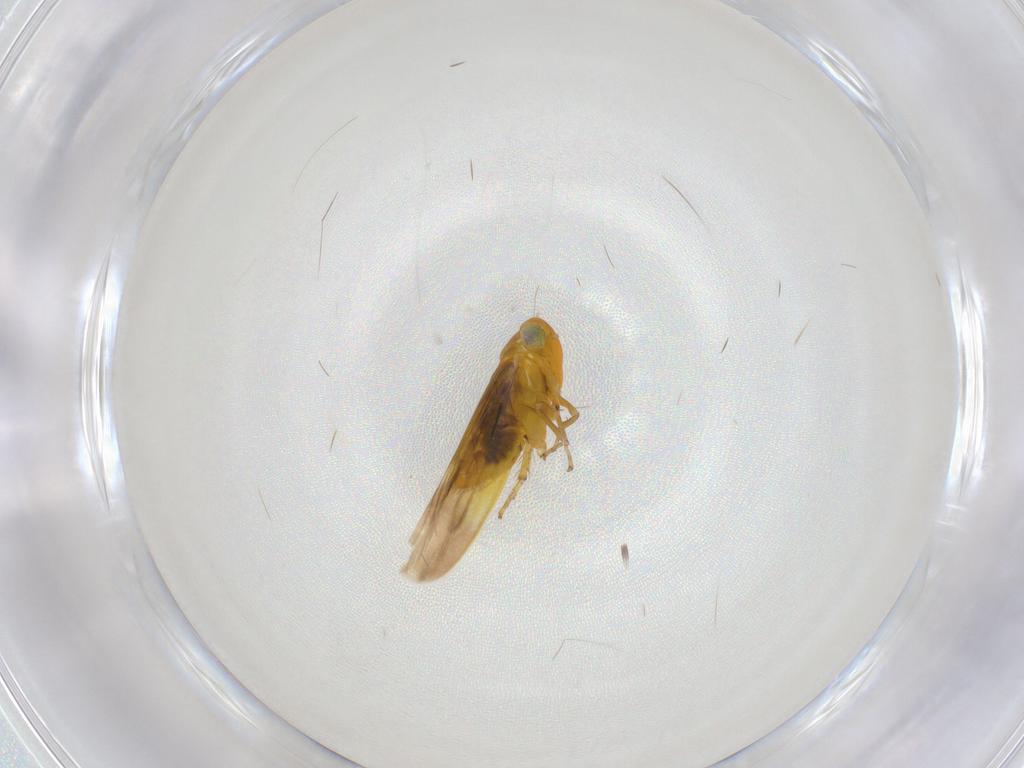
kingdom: Animalia
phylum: Arthropoda
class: Insecta
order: Hemiptera
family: Cicadellidae
